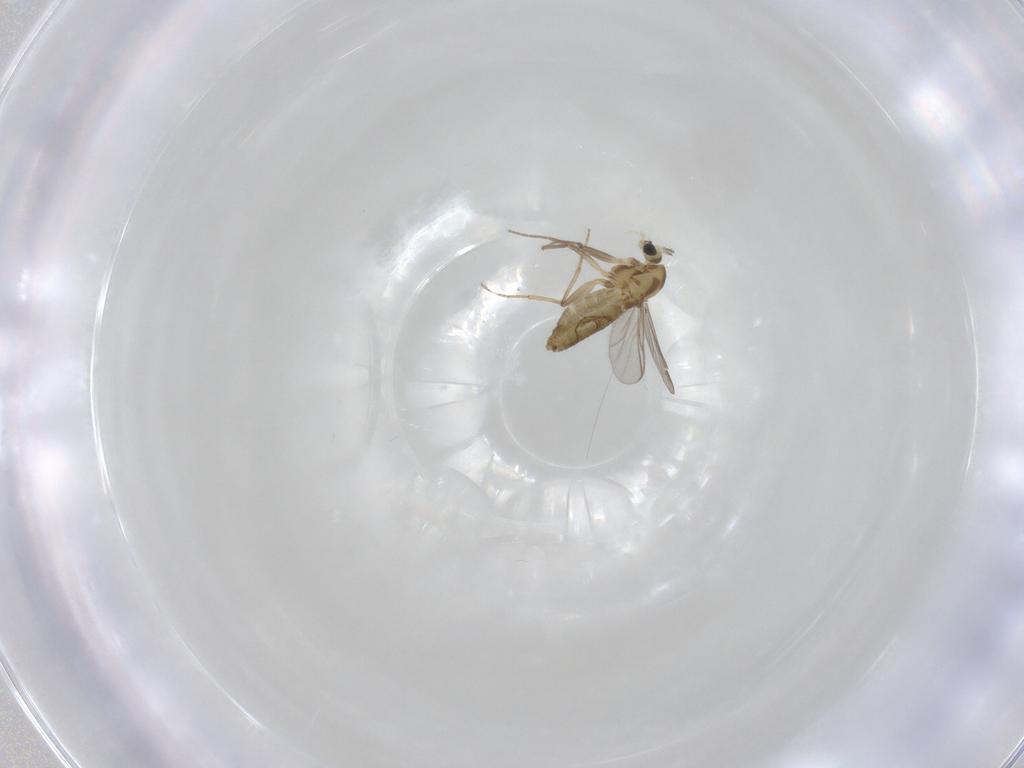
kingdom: Animalia
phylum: Arthropoda
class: Insecta
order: Diptera
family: Chironomidae
